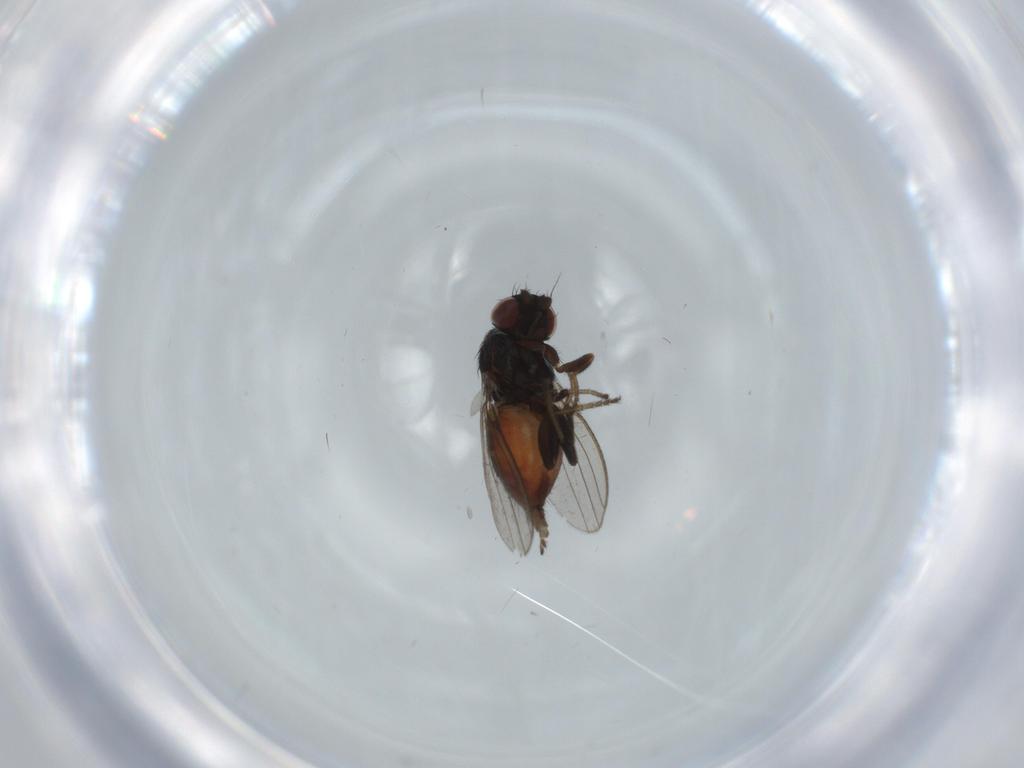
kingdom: Animalia
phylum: Arthropoda
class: Insecta
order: Diptera
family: Milichiidae
